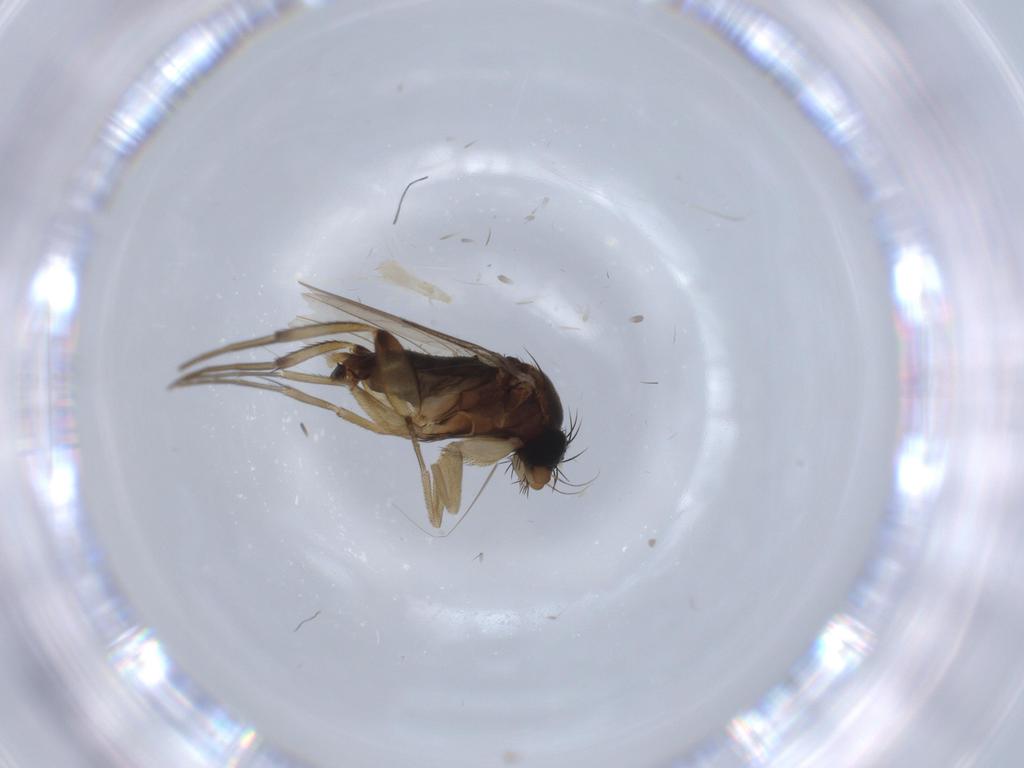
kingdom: Animalia
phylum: Arthropoda
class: Insecta
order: Diptera
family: Phoridae
